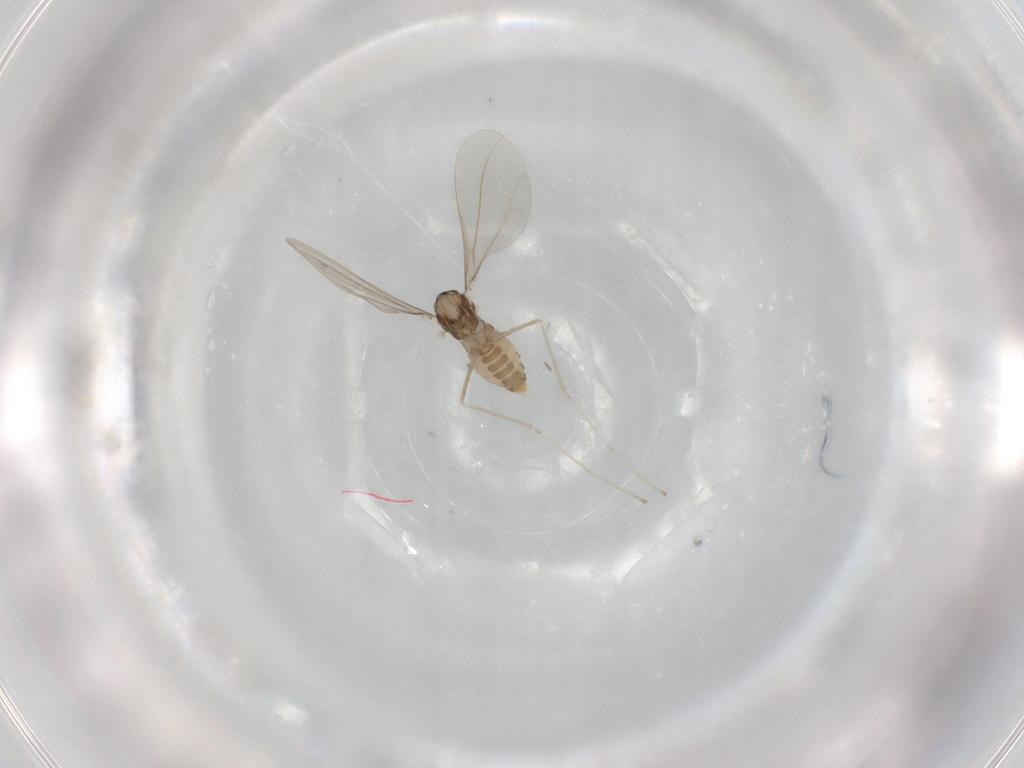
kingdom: Animalia
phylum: Arthropoda
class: Insecta
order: Diptera
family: Cecidomyiidae
